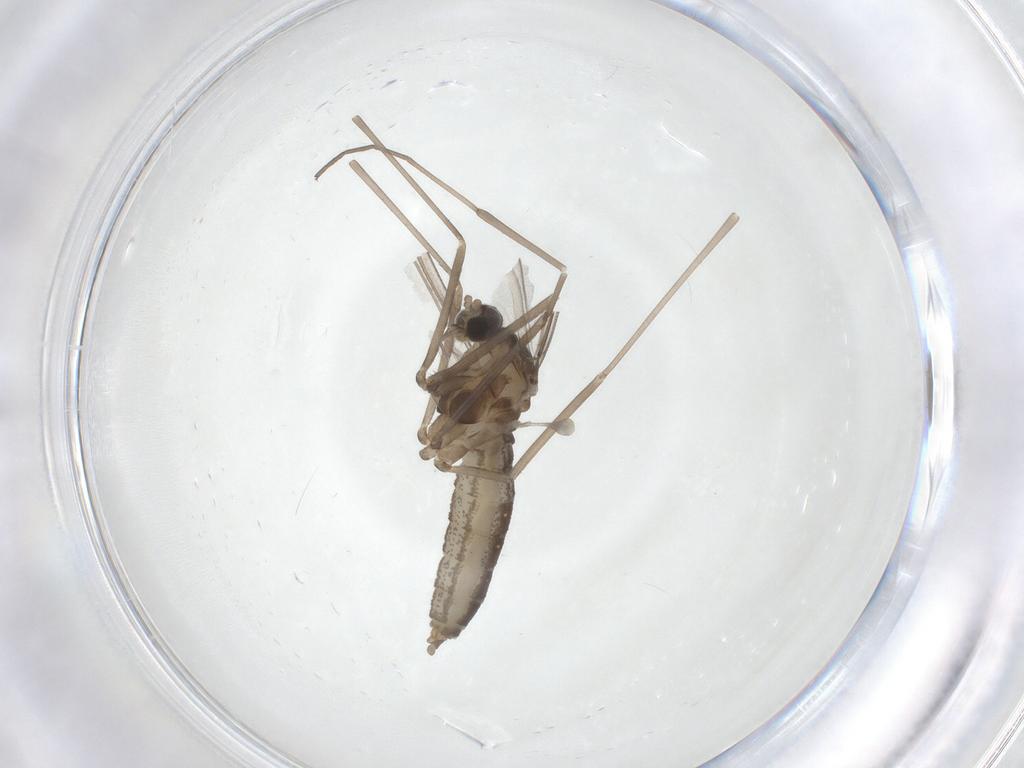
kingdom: Animalia
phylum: Arthropoda
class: Insecta
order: Diptera
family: Cecidomyiidae
